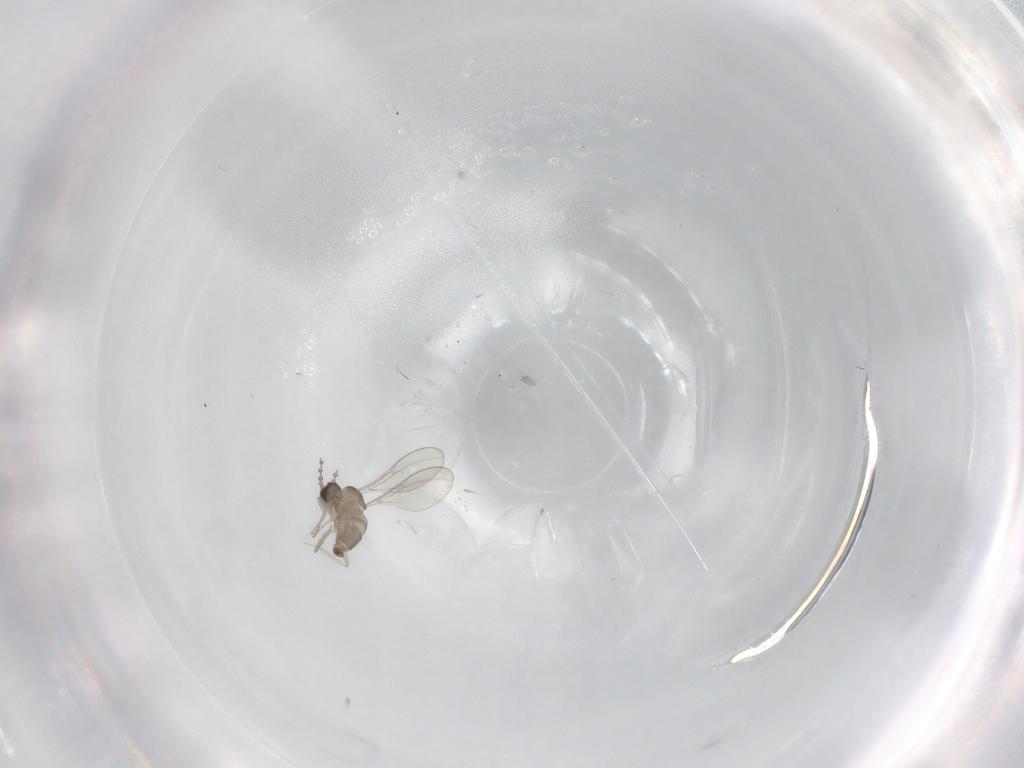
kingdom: Animalia
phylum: Arthropoda
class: Insecta
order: Diptera
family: Cecidomyiidae
